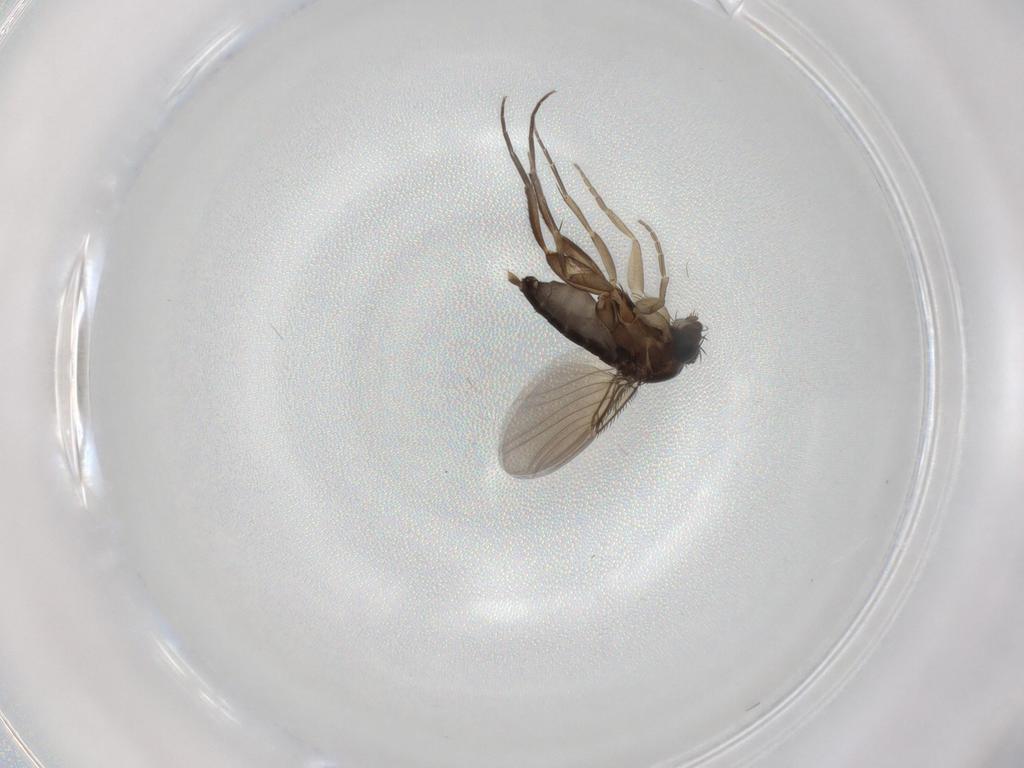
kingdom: Animalia
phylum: Arthropoda
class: Insecta
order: Diptera
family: Phoridae
